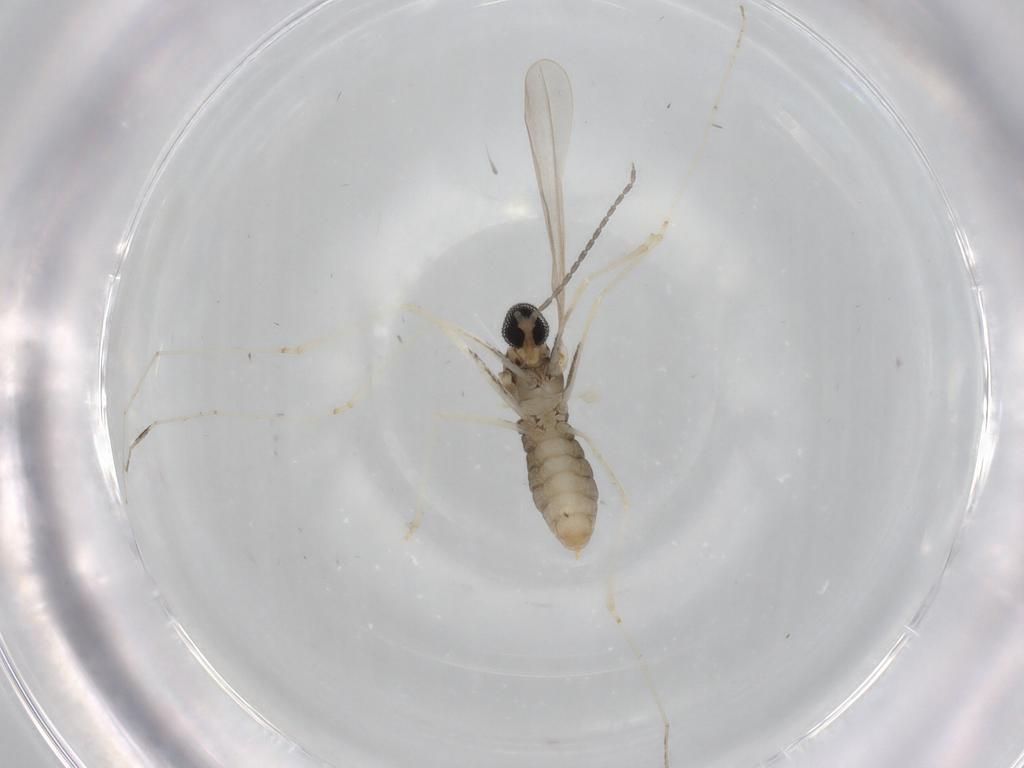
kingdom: Animalia
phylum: Arthropoda
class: Insecta
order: Diptera
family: Cecidomyiidae
